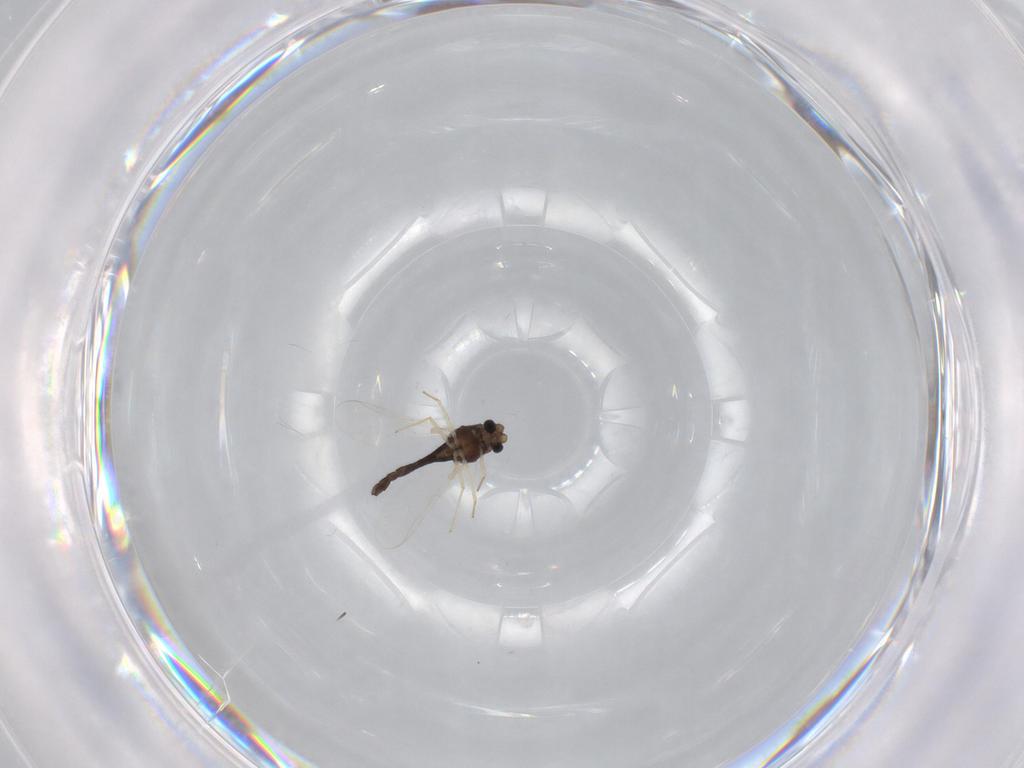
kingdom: Animalia
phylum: Arthropoda
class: Insecta
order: Diptera
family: Chironomidae
